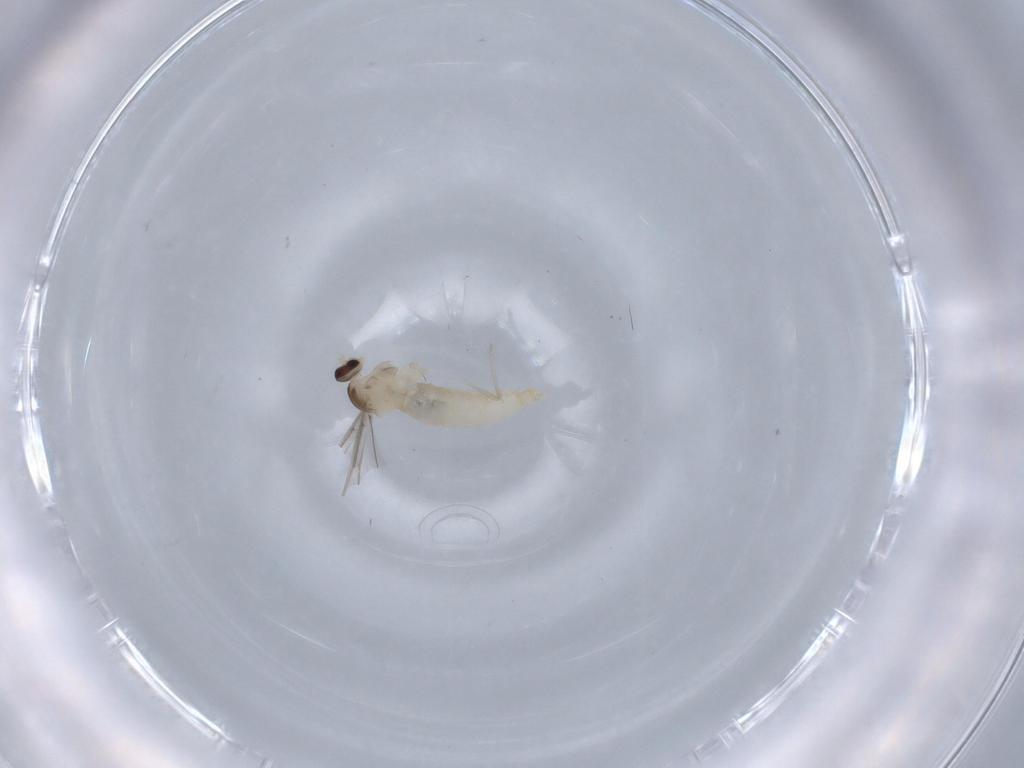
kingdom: Animalia
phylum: Arthropoda
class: Insecta
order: Diptera
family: Cecidomyiidae
